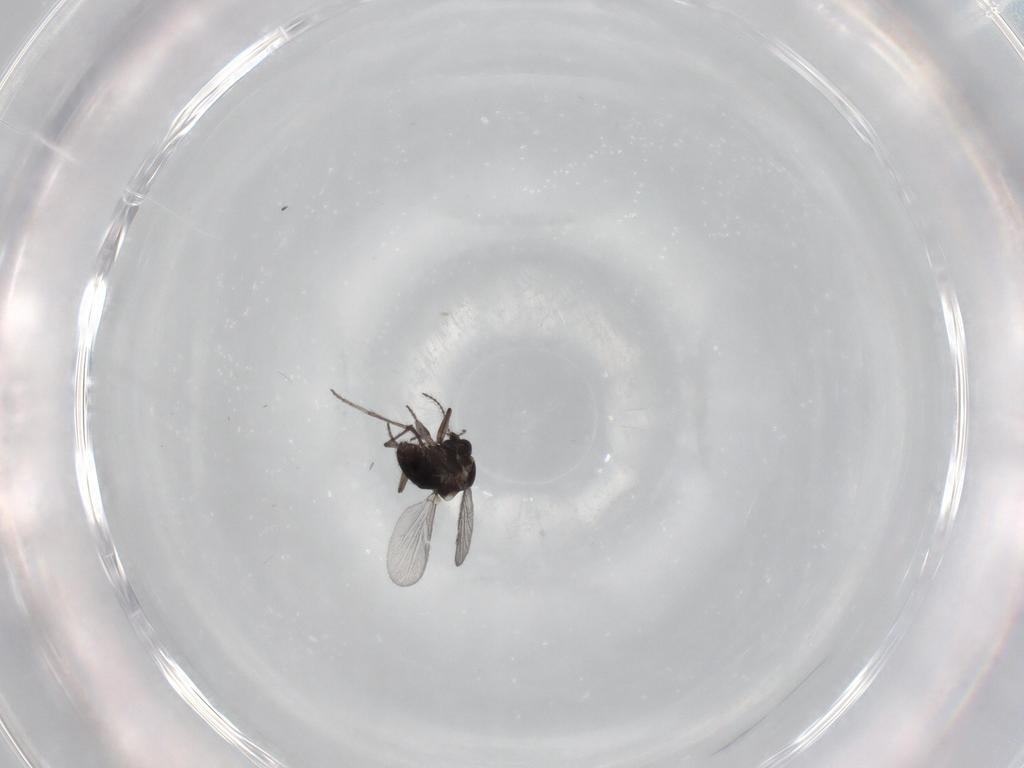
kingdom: Animalia
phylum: Arthropoda
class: Insecta
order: Diptera
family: Ceratopogonidae
